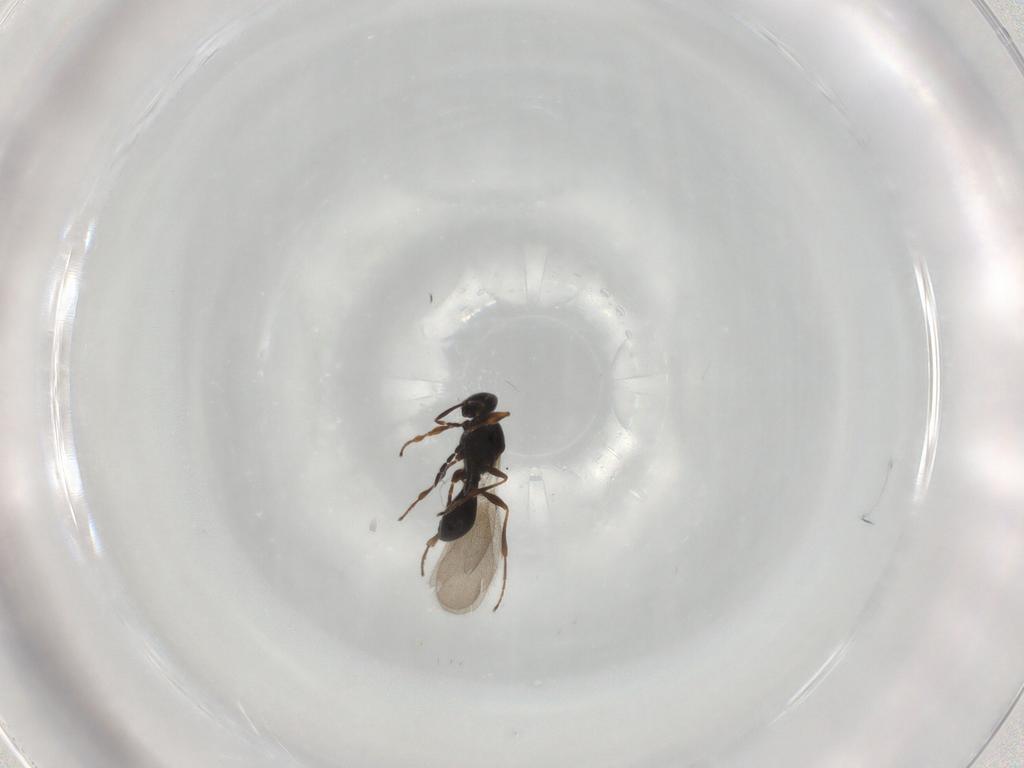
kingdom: Animalia
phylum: Arthropoda
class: Insecta
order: Hymenoptera
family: Platygastridae
